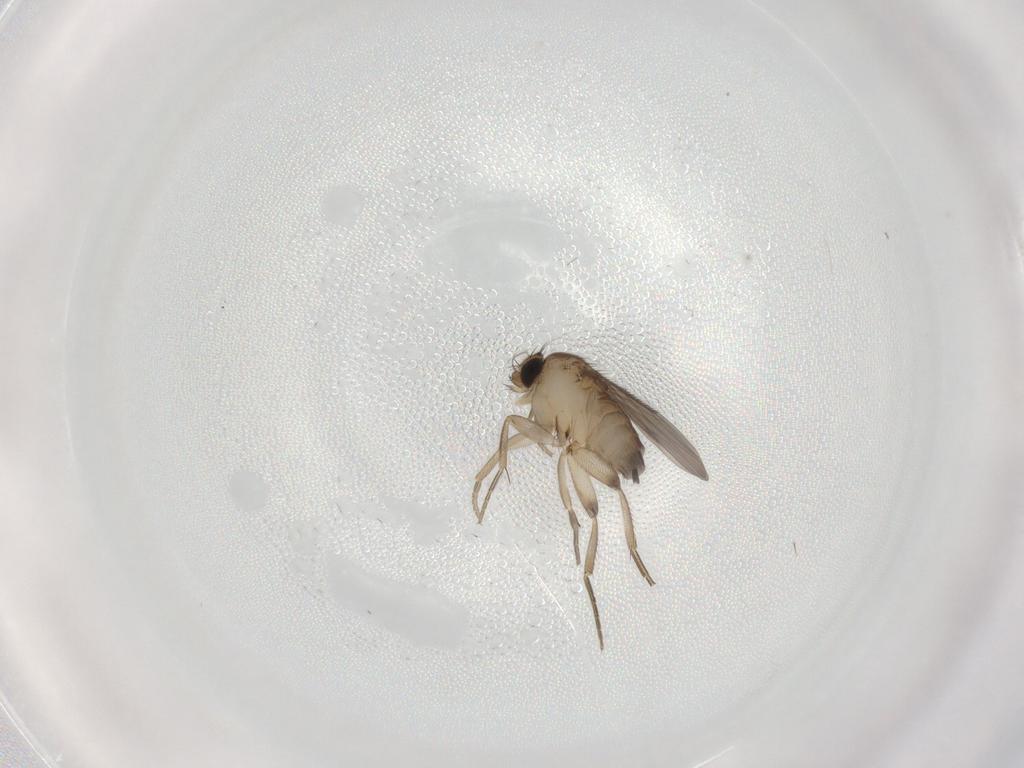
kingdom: Animalia
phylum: Arthropoda
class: Insecta
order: Diptera
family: Phoridae
